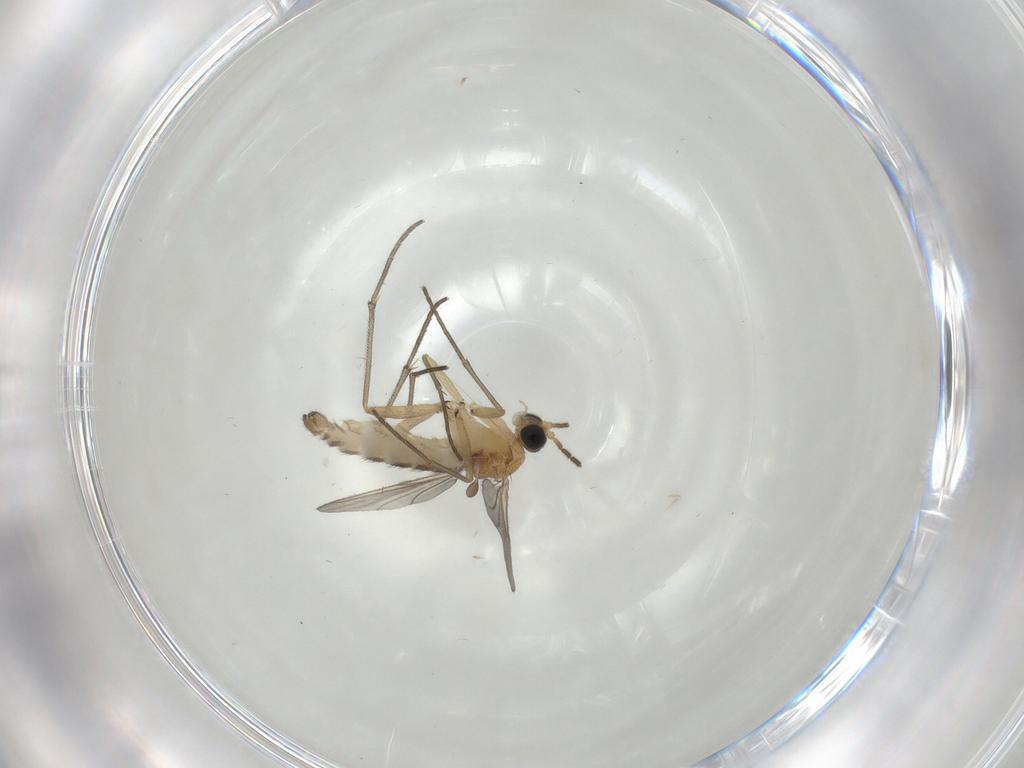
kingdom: Animalia
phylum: Arthropoda
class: Insecta
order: Diptera
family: Sciaridae
